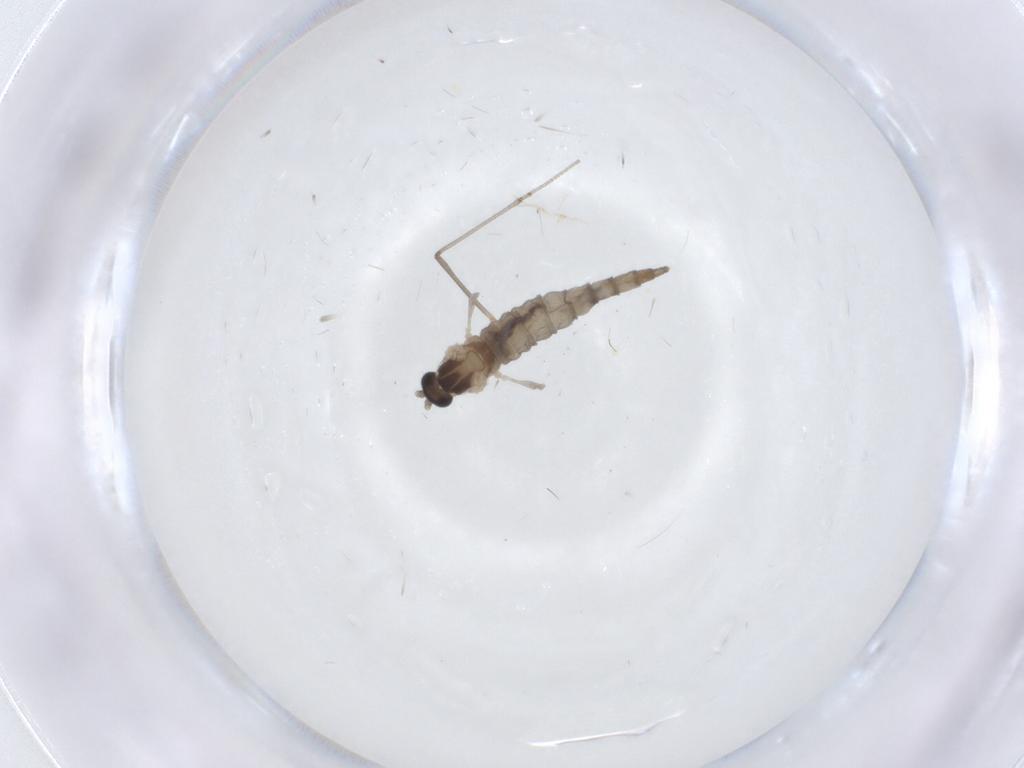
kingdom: Animalia
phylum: Arthropoda
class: Insecta
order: Diptera
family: Cecidomyiidae
